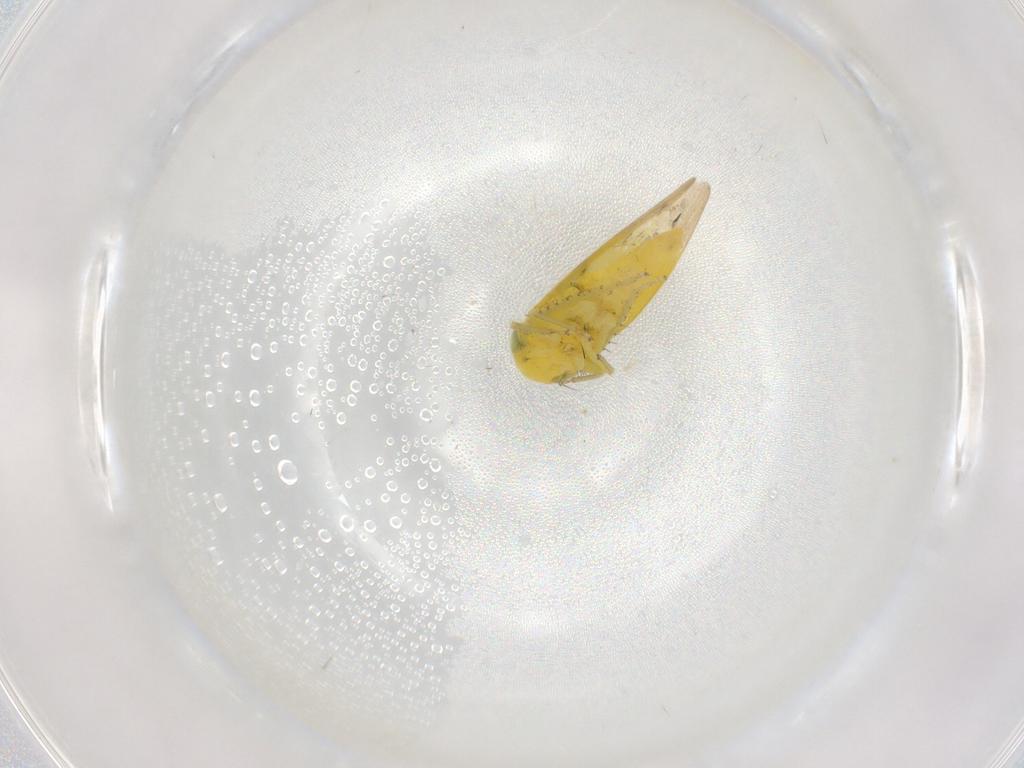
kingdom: Animalia
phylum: Arthropoda
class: Insecta
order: Hemiptera
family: Cicadellidae
